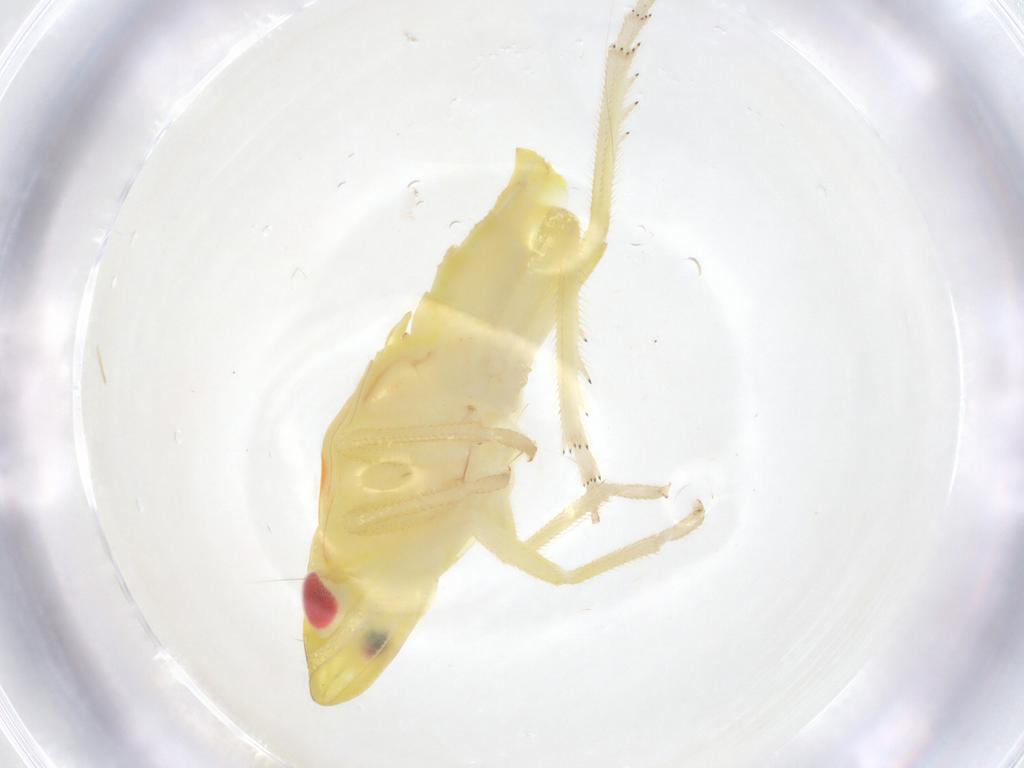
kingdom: Animalia
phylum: Arthropoda
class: Insecta
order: Hemiptera
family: Tropiduchidae
